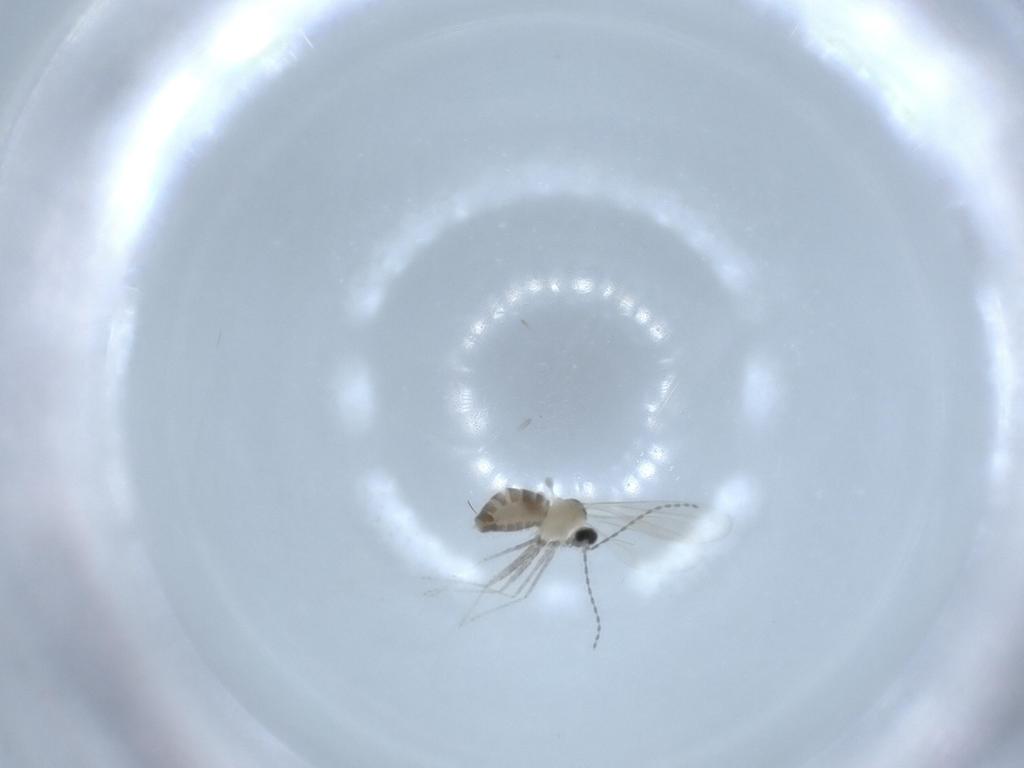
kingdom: Animalia
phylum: Arthropoda
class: Insecta
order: Diptera
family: Cecidomyiidae
